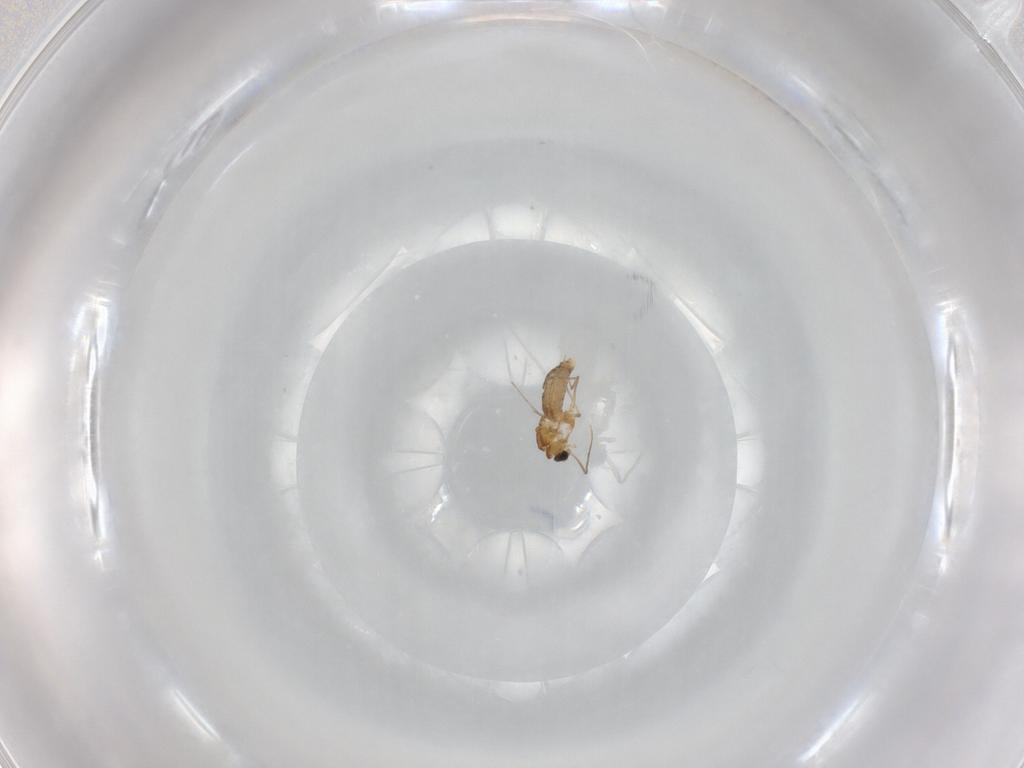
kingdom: Animalia
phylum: Arthropoda
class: Insecta
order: Diptera
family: Chironomidae
